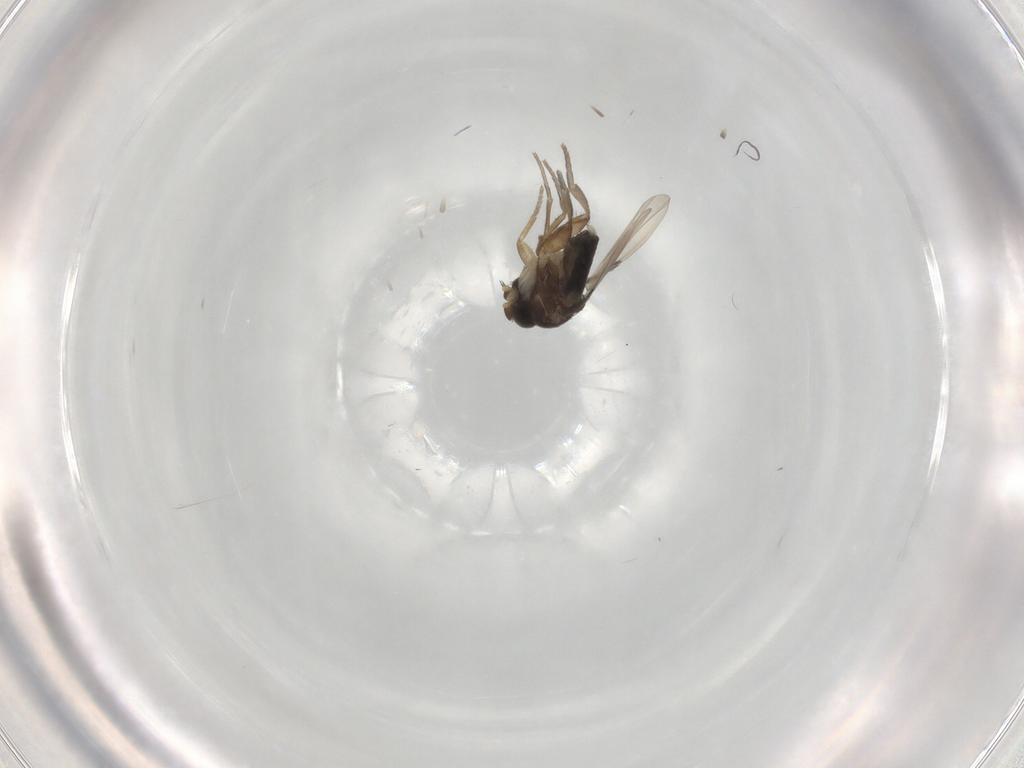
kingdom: Animalia
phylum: Arthropoda
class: Insecta
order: Diptera
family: Phoridae
